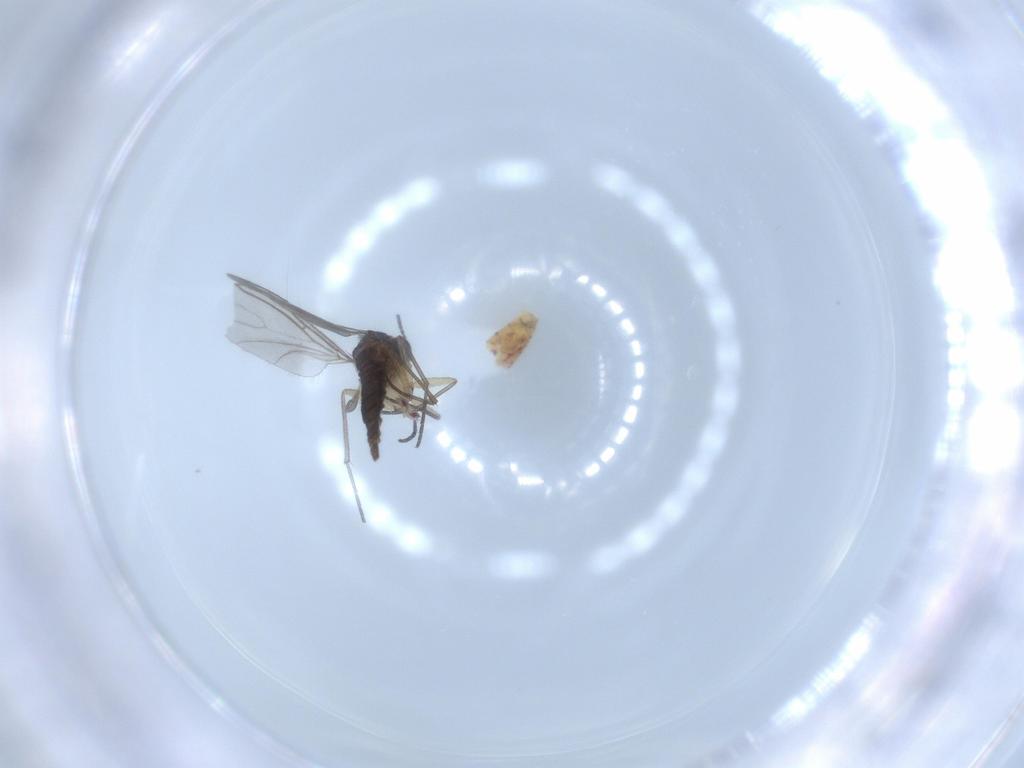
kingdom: Animalia
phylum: Arthropoda
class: Insecta
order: Diptera
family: Sciaridae
